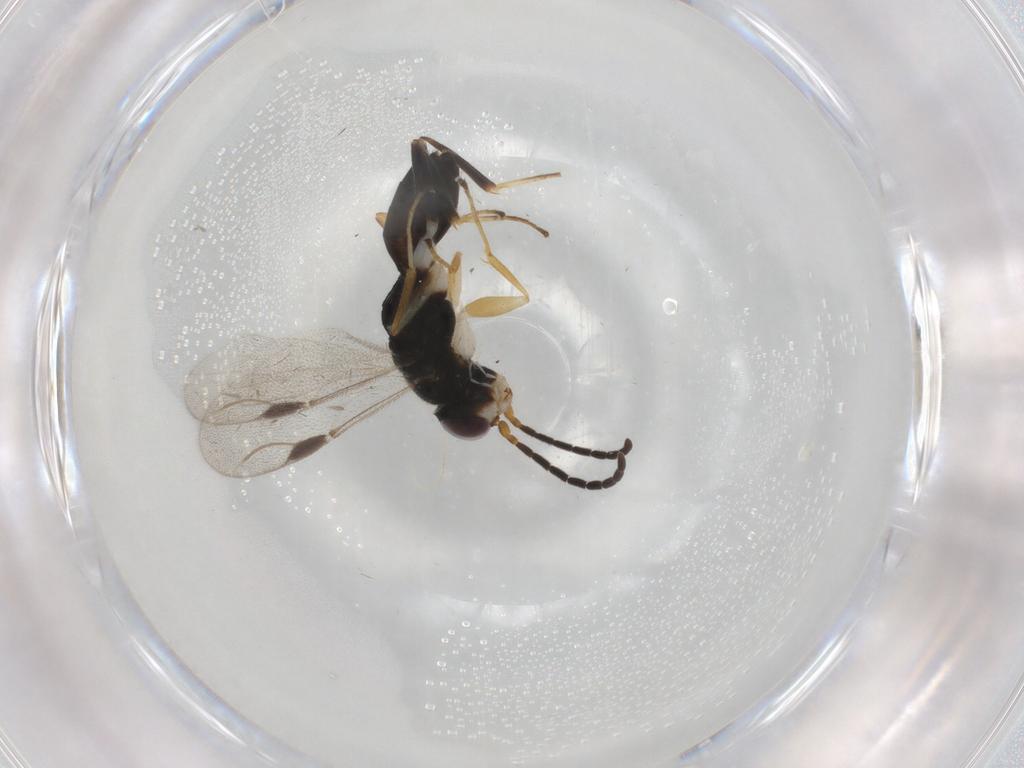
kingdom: Animalia
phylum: Arthropoda
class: Insecta
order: Hymenoptera
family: Dryinidae
